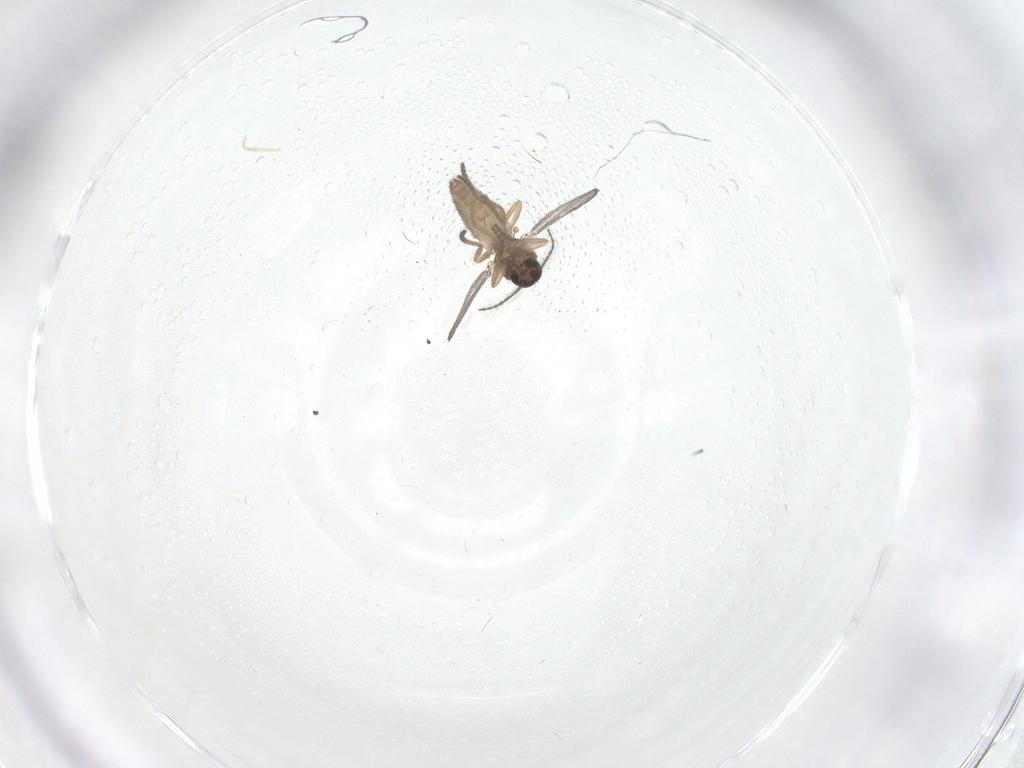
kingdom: Animalia
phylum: Arthropoda
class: Insecta
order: Diptera
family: Ceratopogonidae
